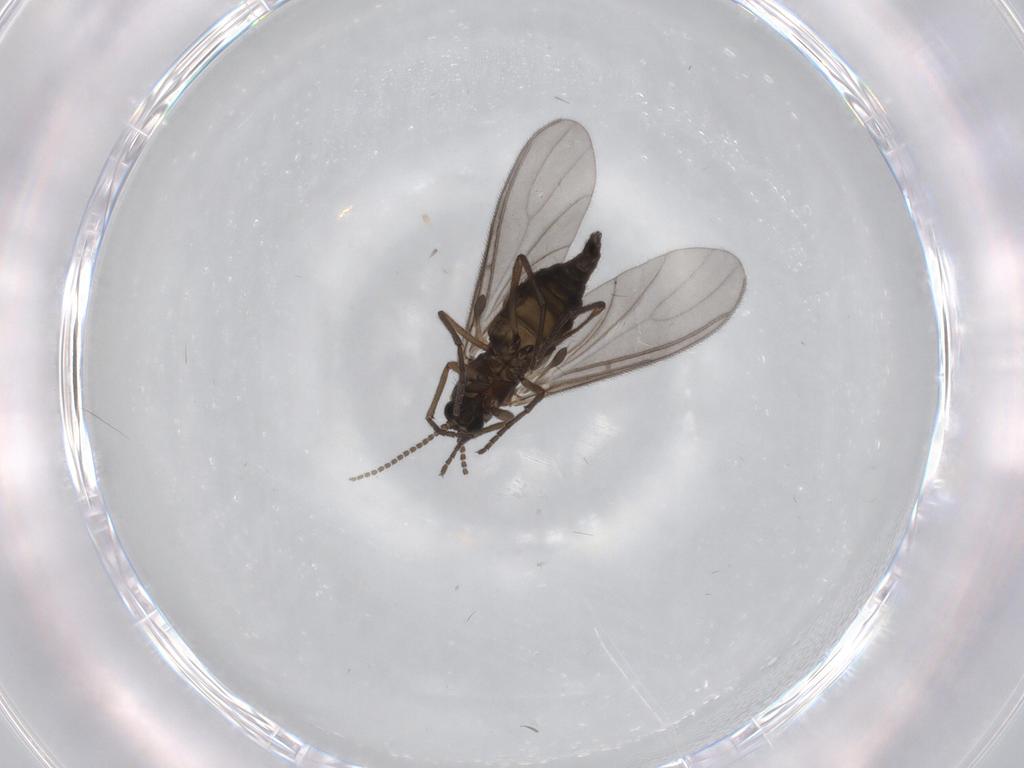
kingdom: Animalia
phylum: Arthropoda
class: Insecta
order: Diptera
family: Sciaridae
